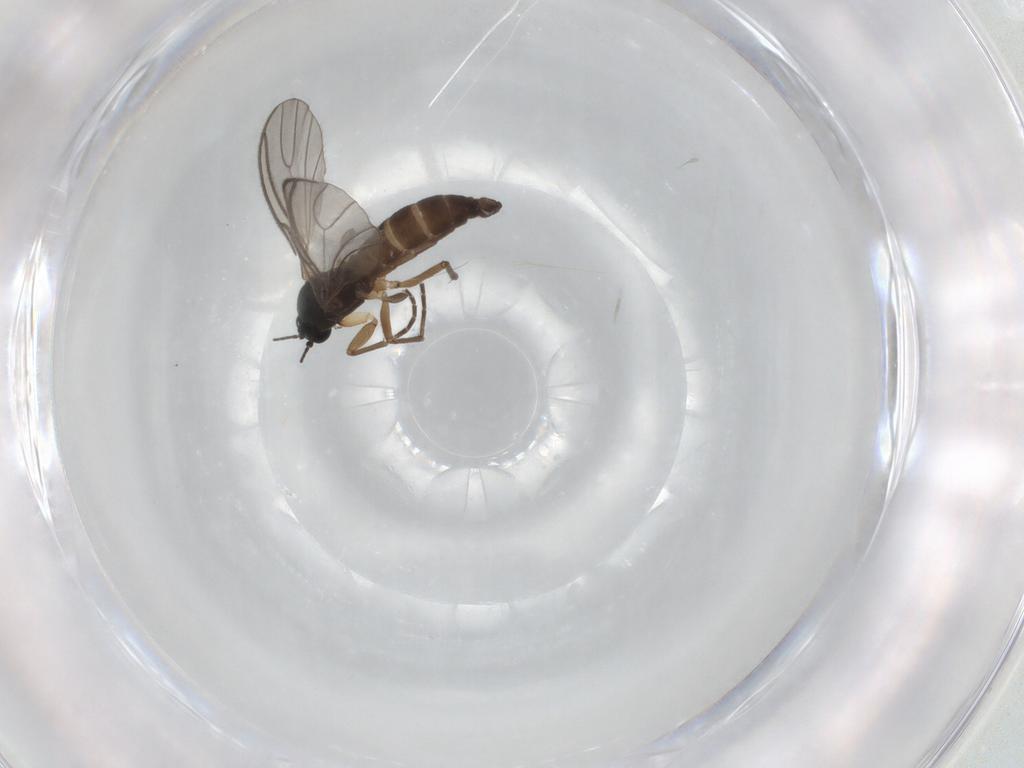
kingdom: Animalia
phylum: Arthropoda
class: Insecta
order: Diptera
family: Sciaridae
